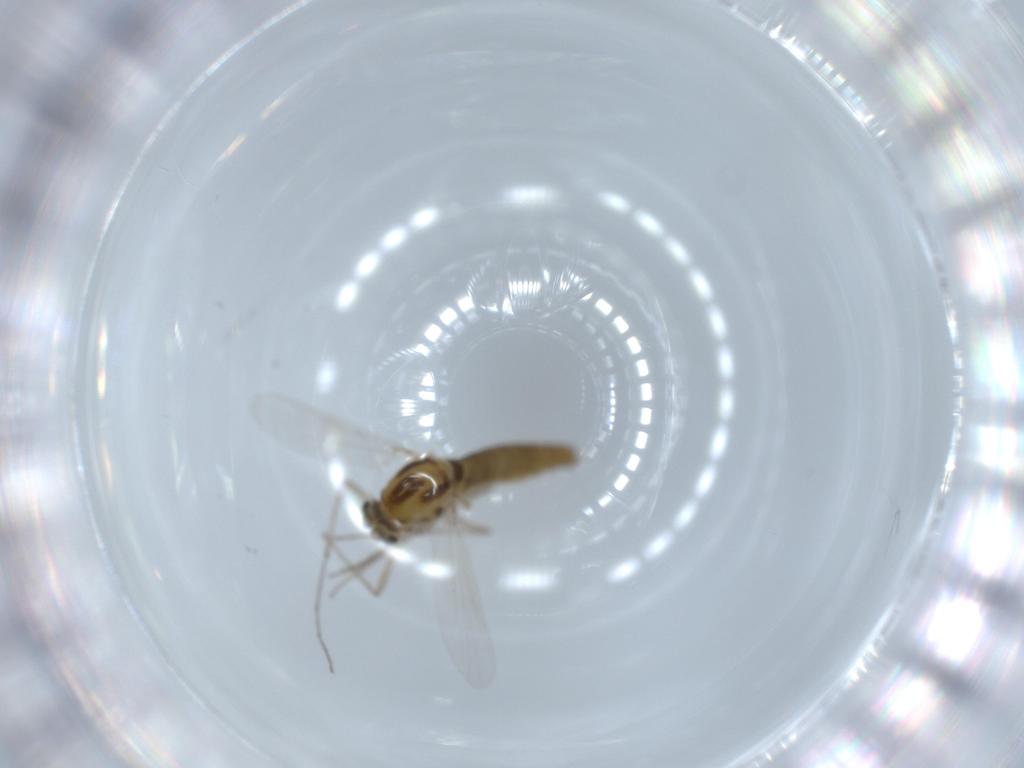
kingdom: Animalia
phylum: Arthropoda
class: Insecta
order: Diptera
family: Chironomidae
